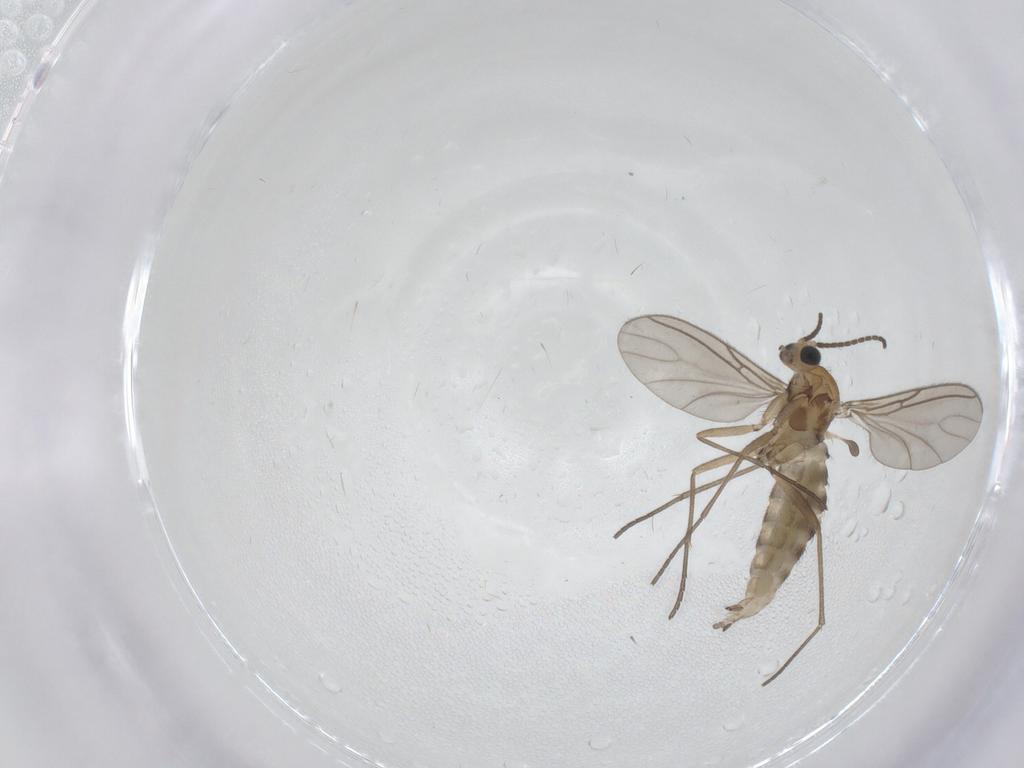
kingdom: Animalia
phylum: Arthropoda
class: Insecta
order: Diptera
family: Sciaridae
